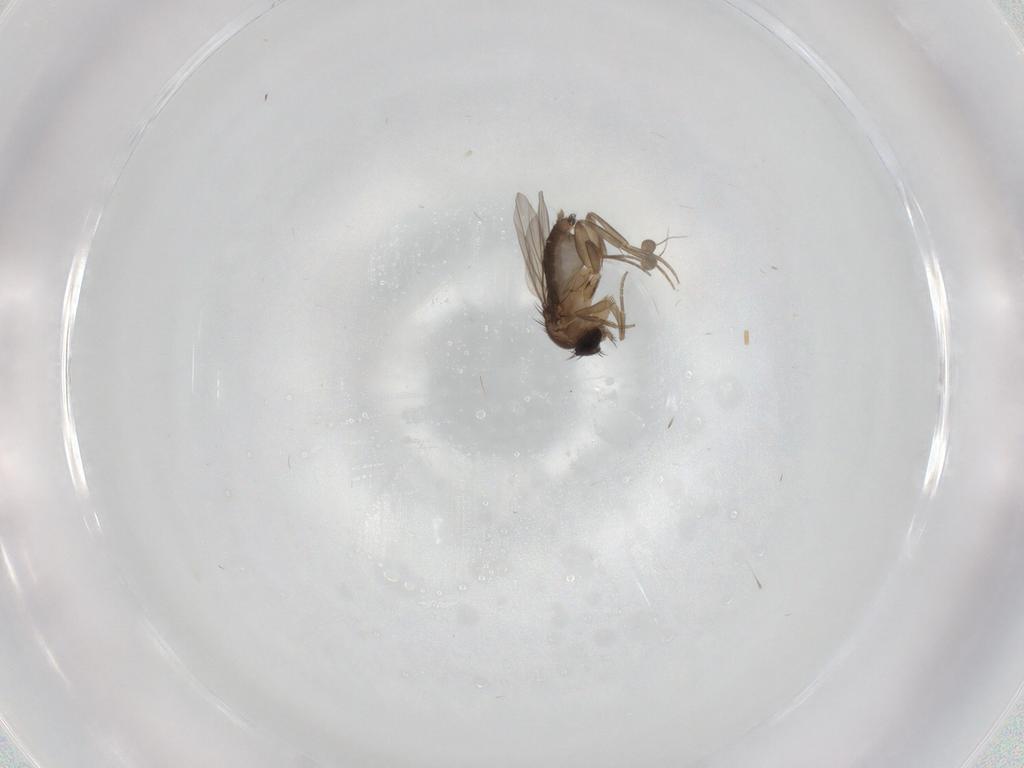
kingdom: Animalia
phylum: Arthropoda
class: Insecta
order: Diptera
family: Phoridae
